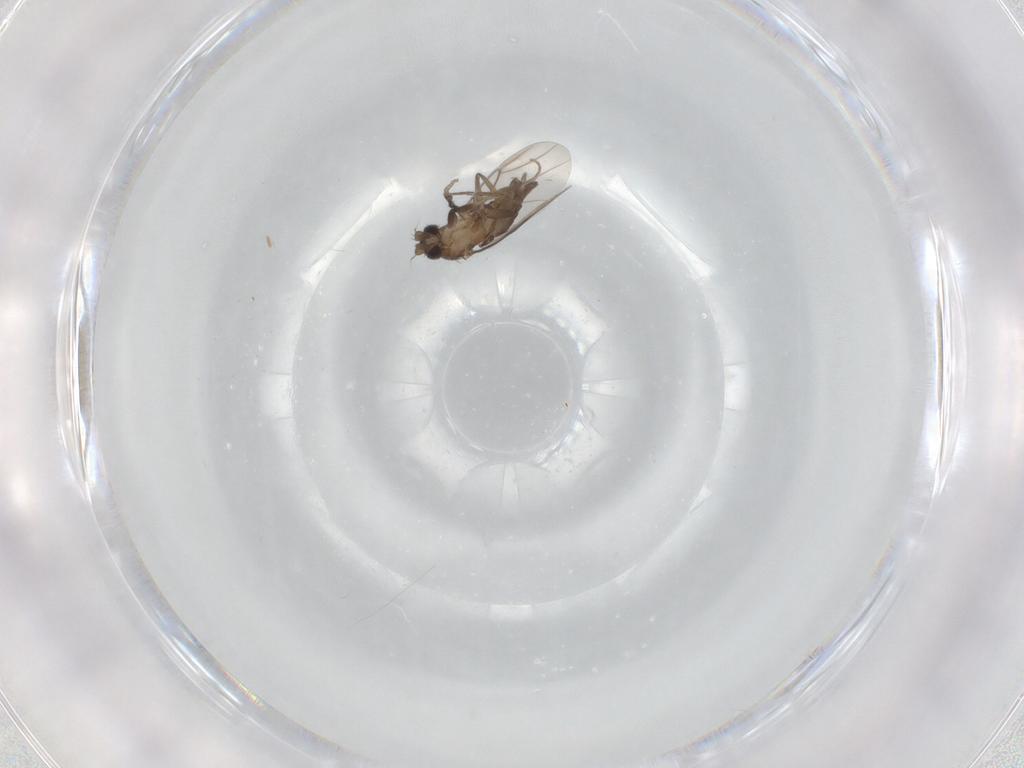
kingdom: Animalia
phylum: Arthropoda
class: Insecta
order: Diptera
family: Phoridae
